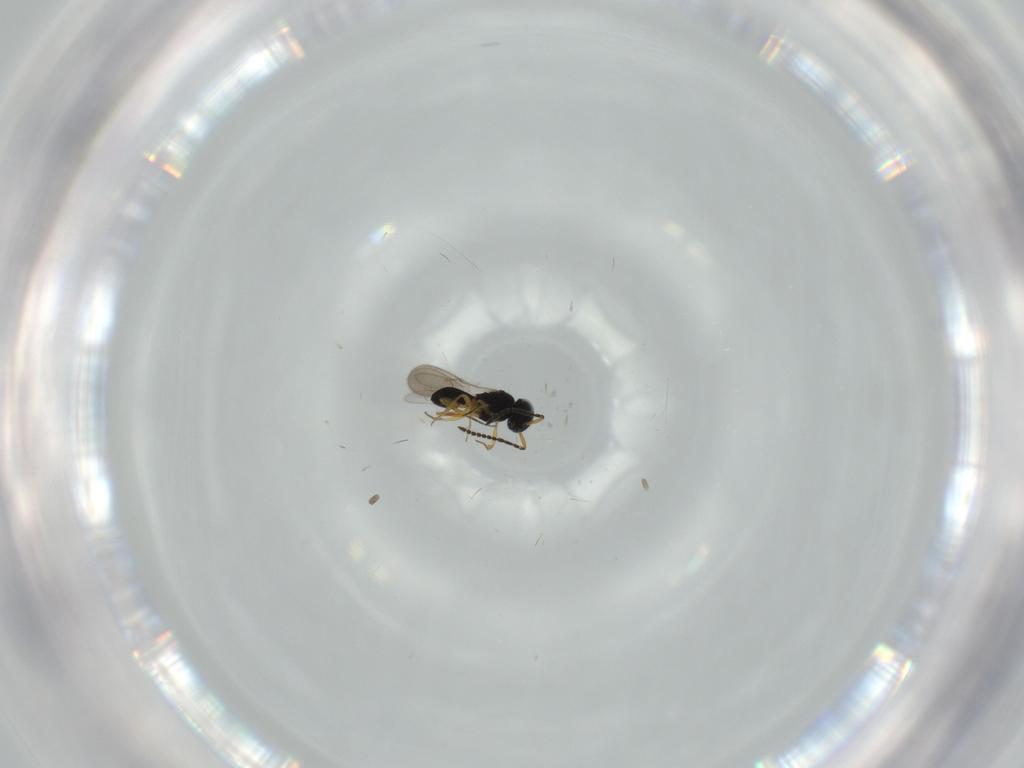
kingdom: Animalia
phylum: Arthropoda
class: Insecta
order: Hymenoptera
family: Scelionidae
